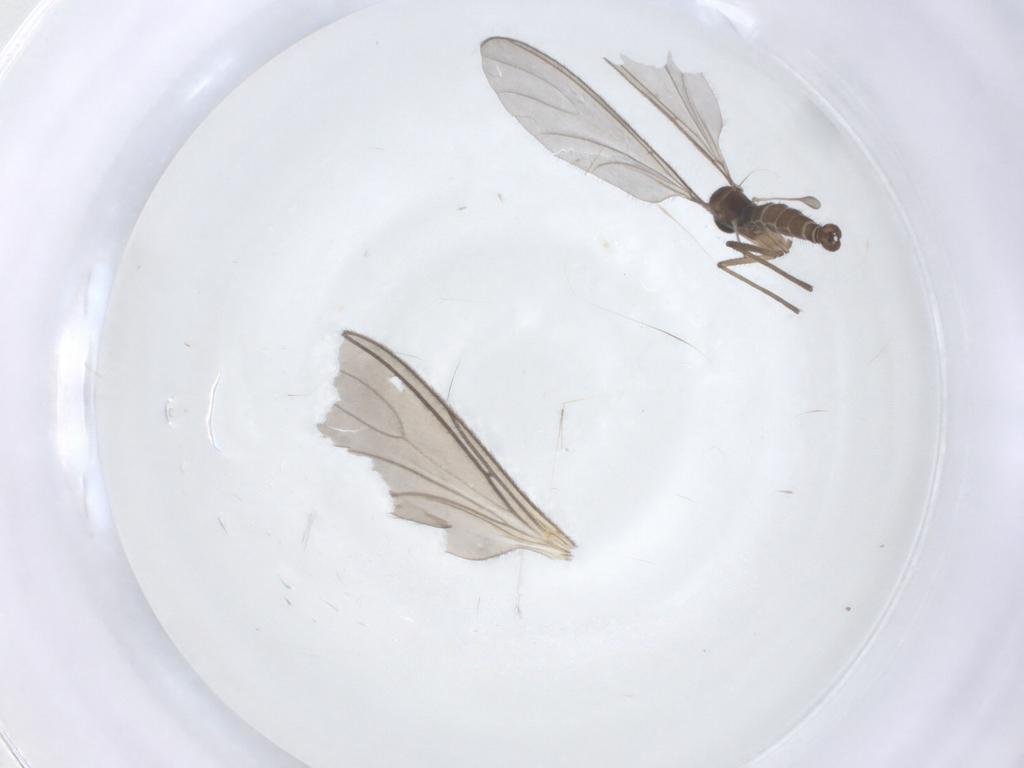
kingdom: Animalia
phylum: Arthropoda
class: Insecta
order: Diptera
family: Sciaridae
